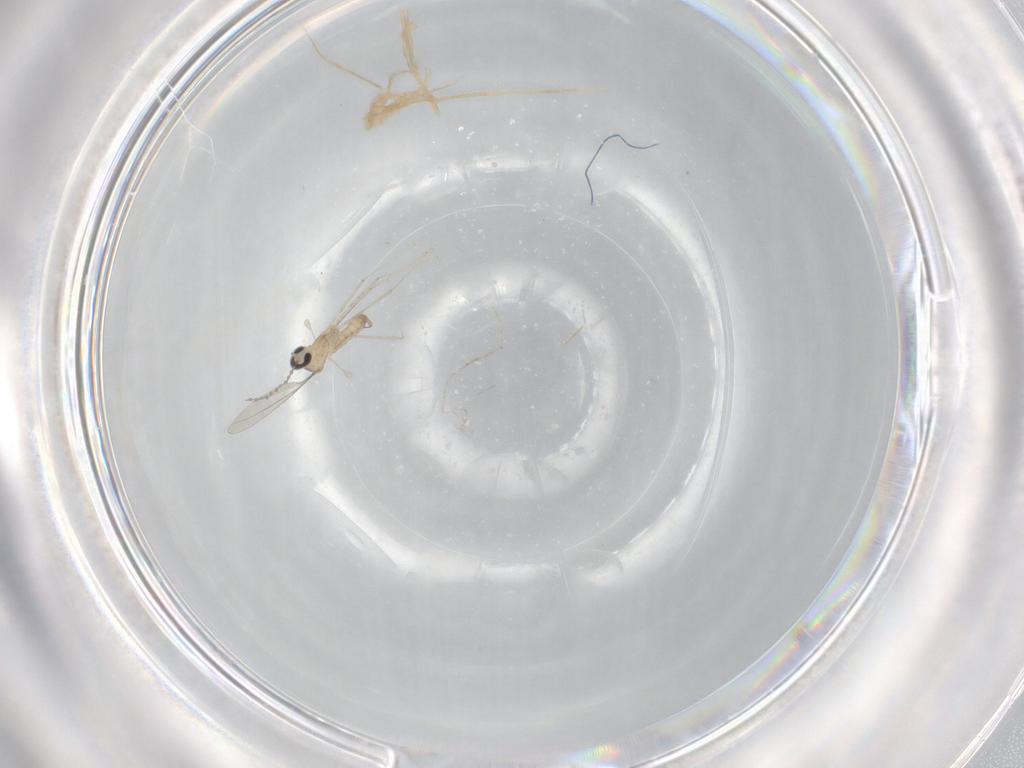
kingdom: Animalia
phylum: Arthropoda
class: Insecta
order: Diptera
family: Cecidomyiidae
